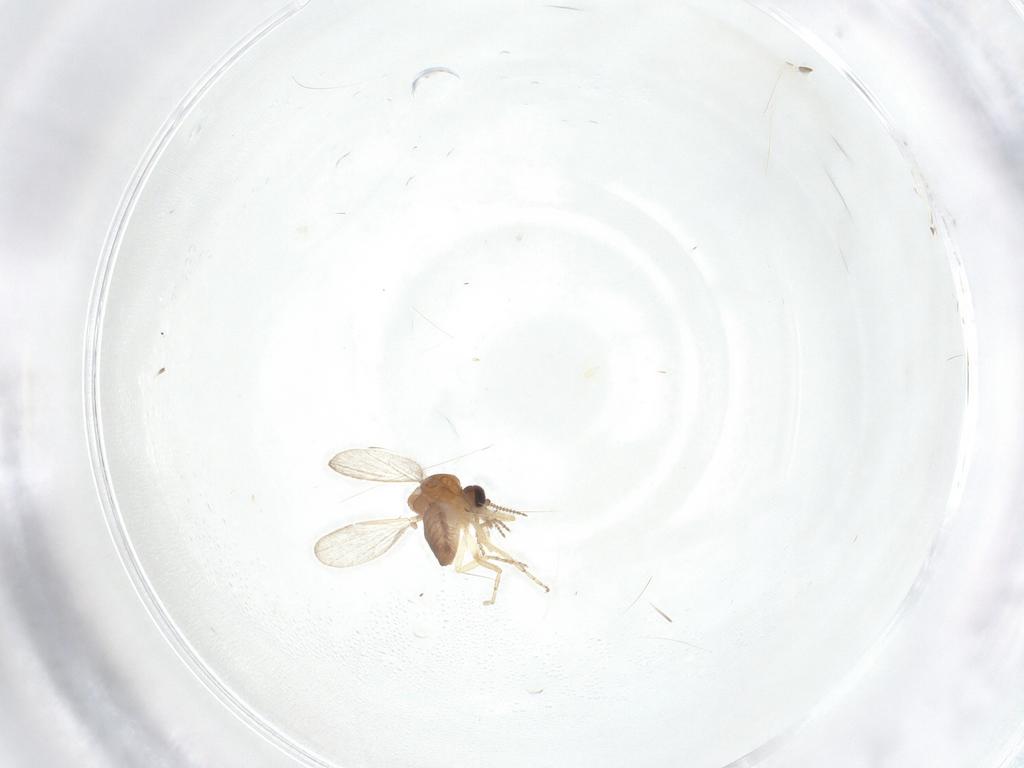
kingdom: Animalia
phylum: Arthropoda
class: Insecta
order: Diptera
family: Ceratopogonidae
